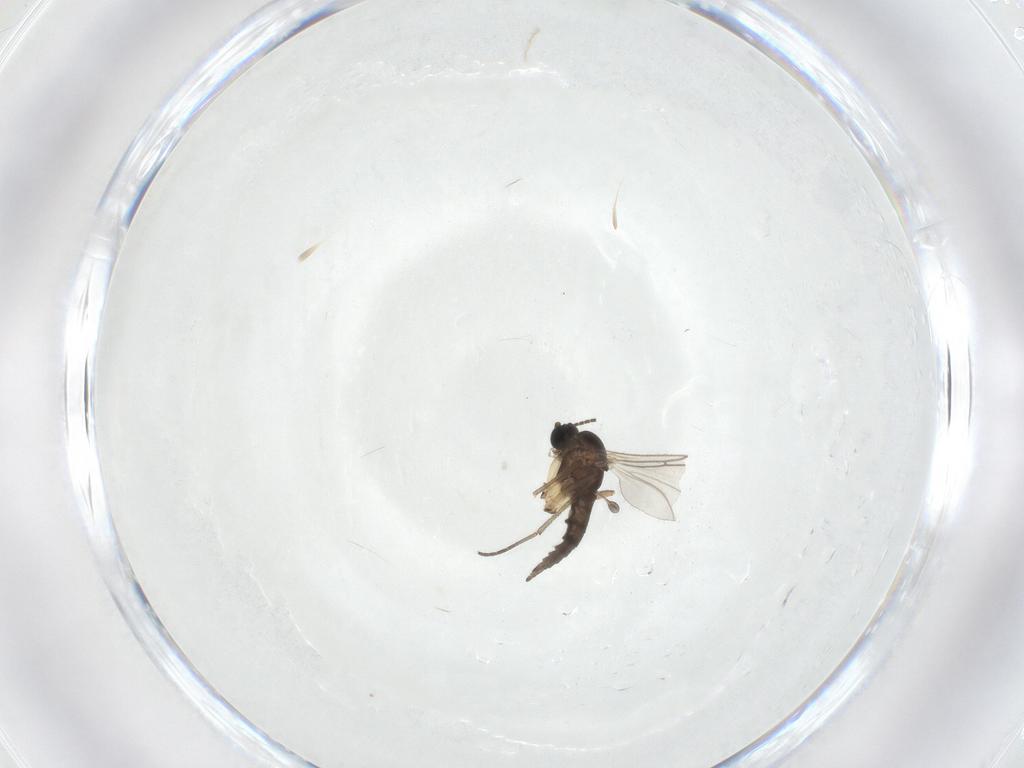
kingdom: Animalia
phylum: Arthropoda
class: Insecta
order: Diptera
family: Sciaridae
